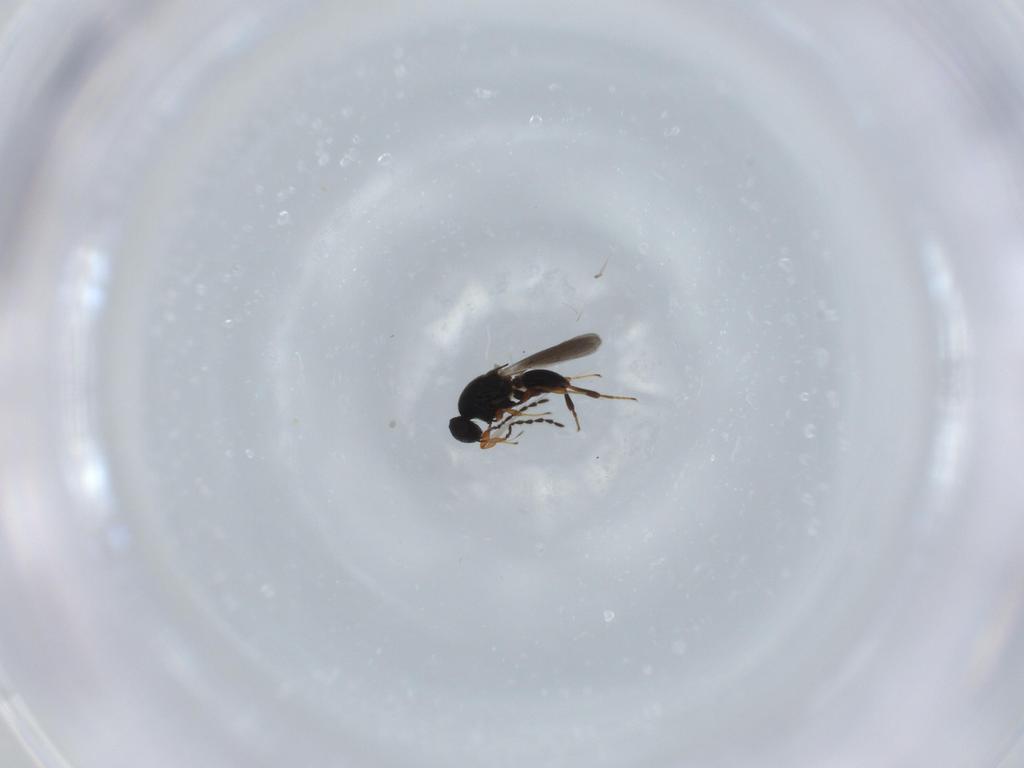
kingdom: Animalia
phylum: Arthropoda
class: Insecta
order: Hymenoptera
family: Platygastridae
